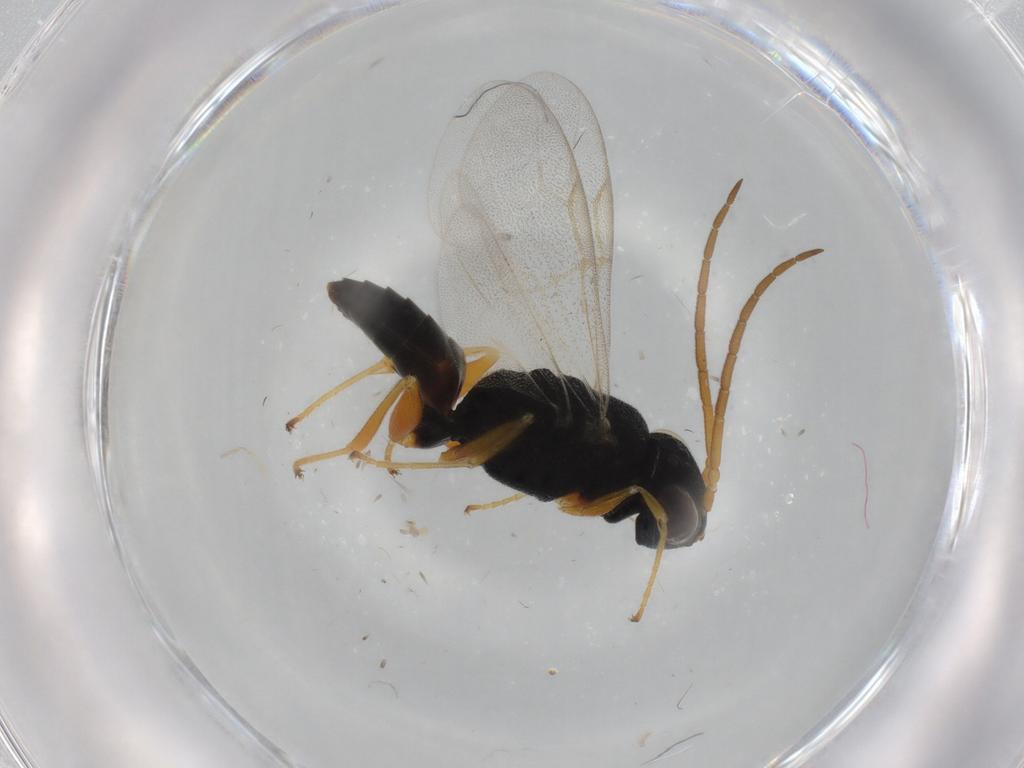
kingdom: Animalia
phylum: Arthropoda
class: Insecta
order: Hymenoptera
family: Dryinidae
